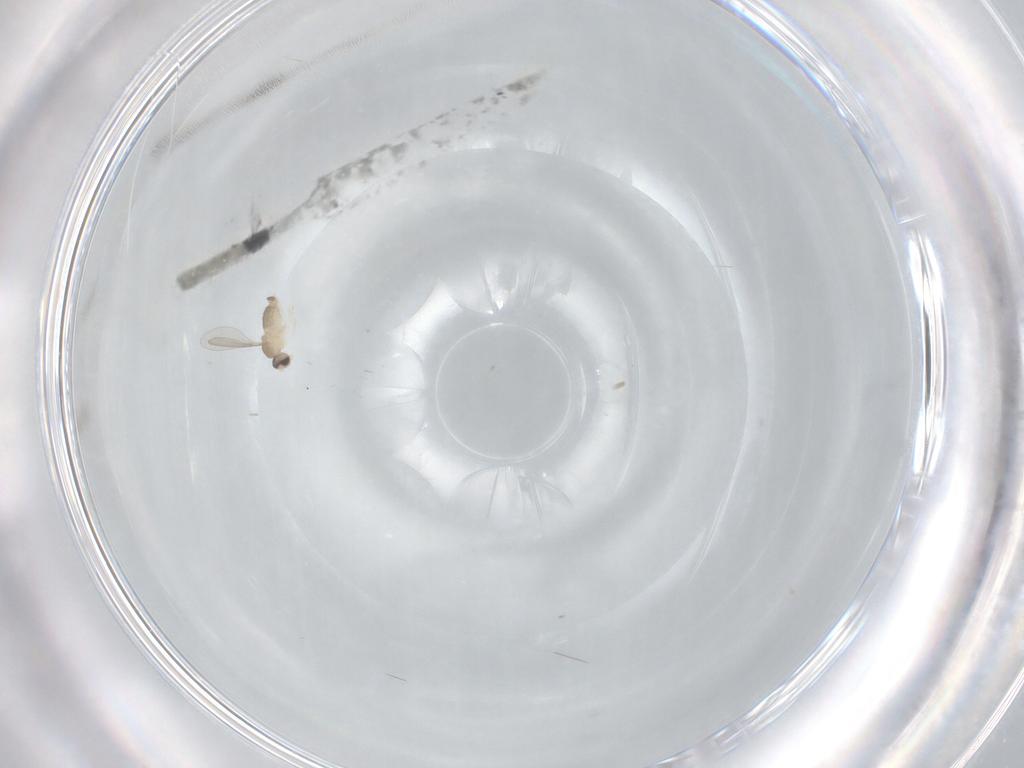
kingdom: Animalia
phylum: Arthropoda
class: Insecta
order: Diptera
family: Cecidomyiidae
